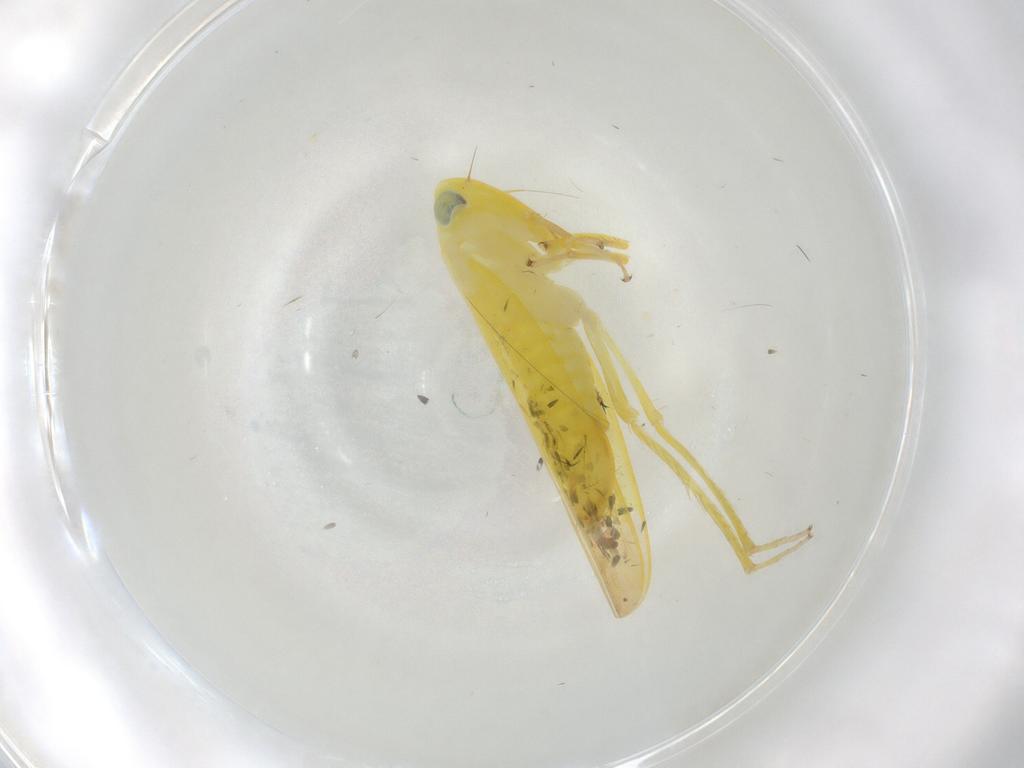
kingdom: Animalia
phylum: Arthropoda
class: Insecta
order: Hemiptera
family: Cicadellidae
